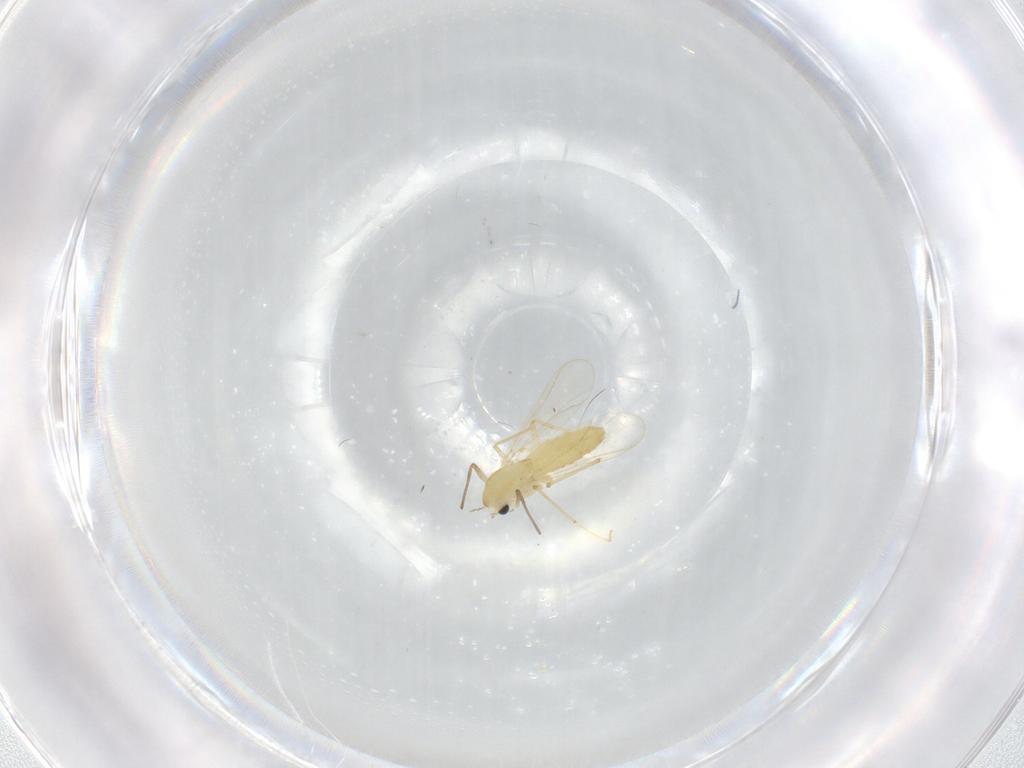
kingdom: Animalia
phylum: Arthropoda
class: Insecta
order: Diptera
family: Chironomidae
